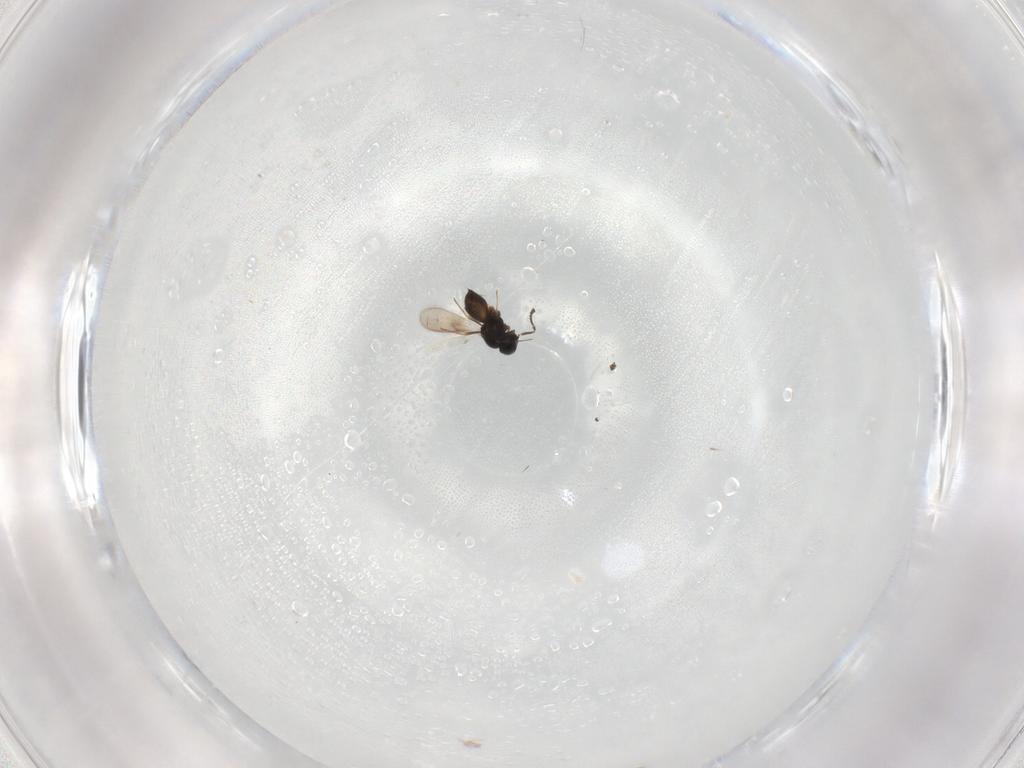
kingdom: Animalia
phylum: Arthropoda
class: Insecta
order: Hymenoptera
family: Scelionidae
